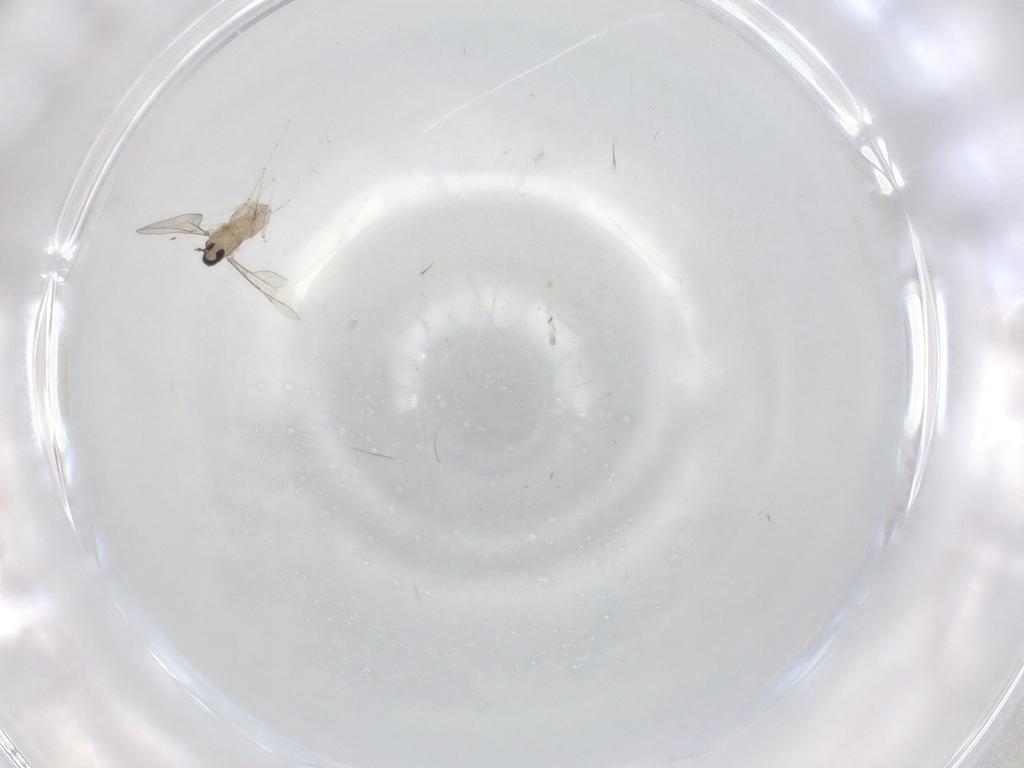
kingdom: Animalia
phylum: Arthropoda
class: Insecta
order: Diptera
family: Cecidomyiidae
